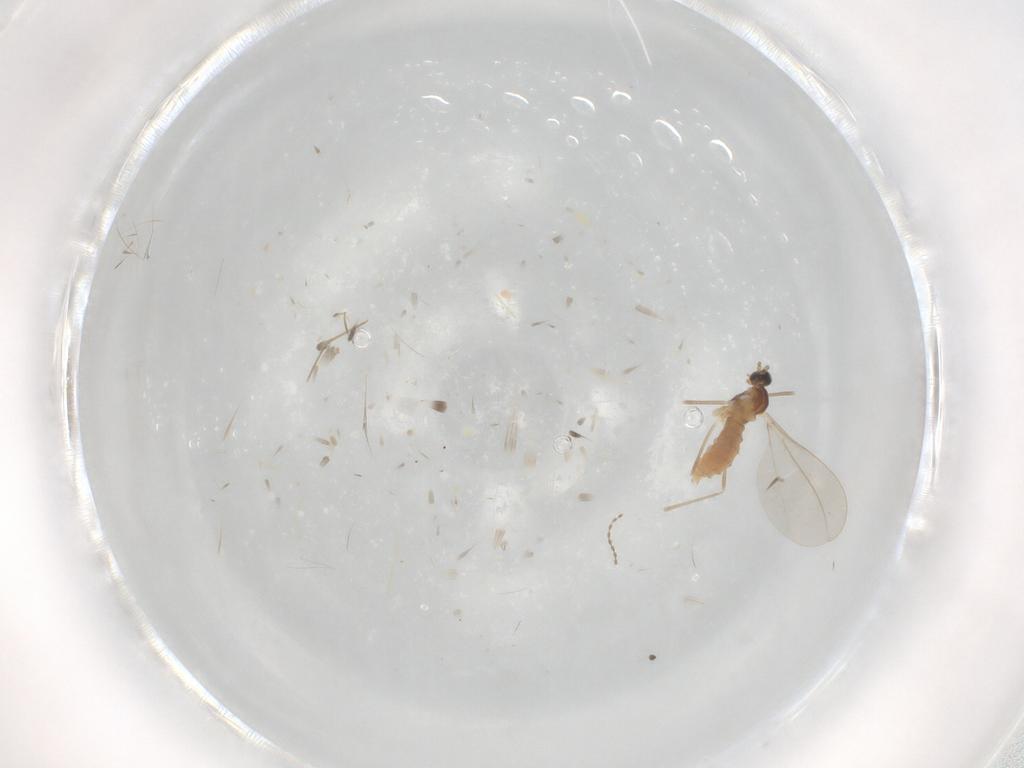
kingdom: Animalia
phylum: Arthropoda
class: Insecta
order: Diptera
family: Cecidomyiidae
